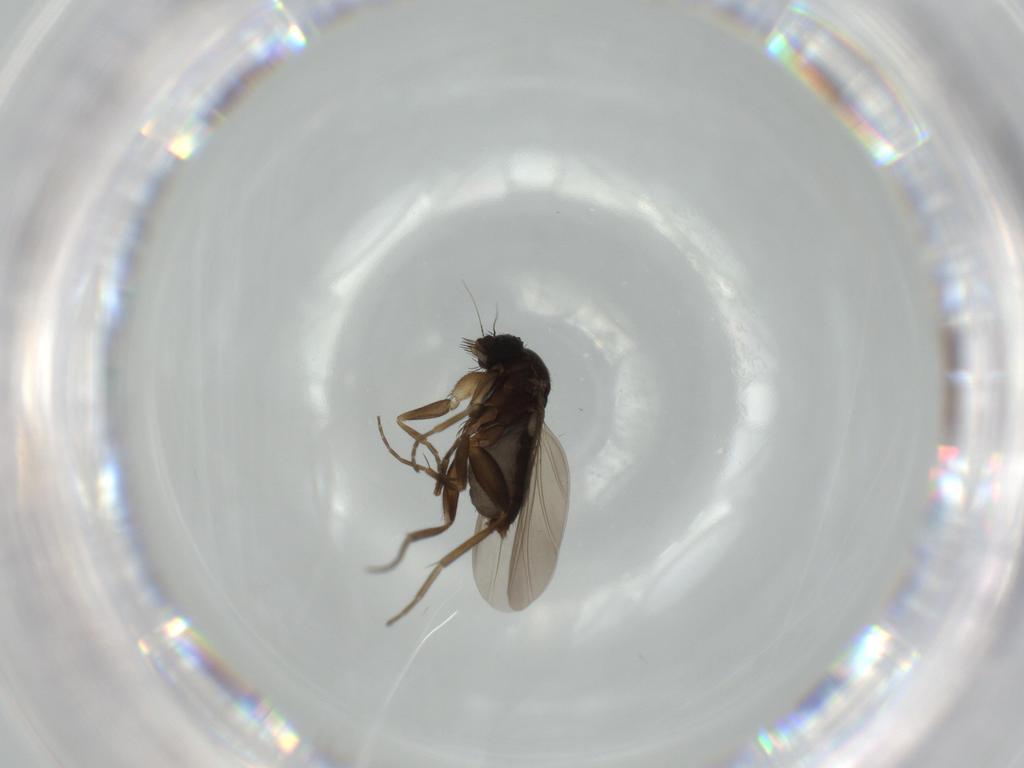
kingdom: Animalia
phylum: Arthropoda
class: Insecta
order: Diptera
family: Phoridae
